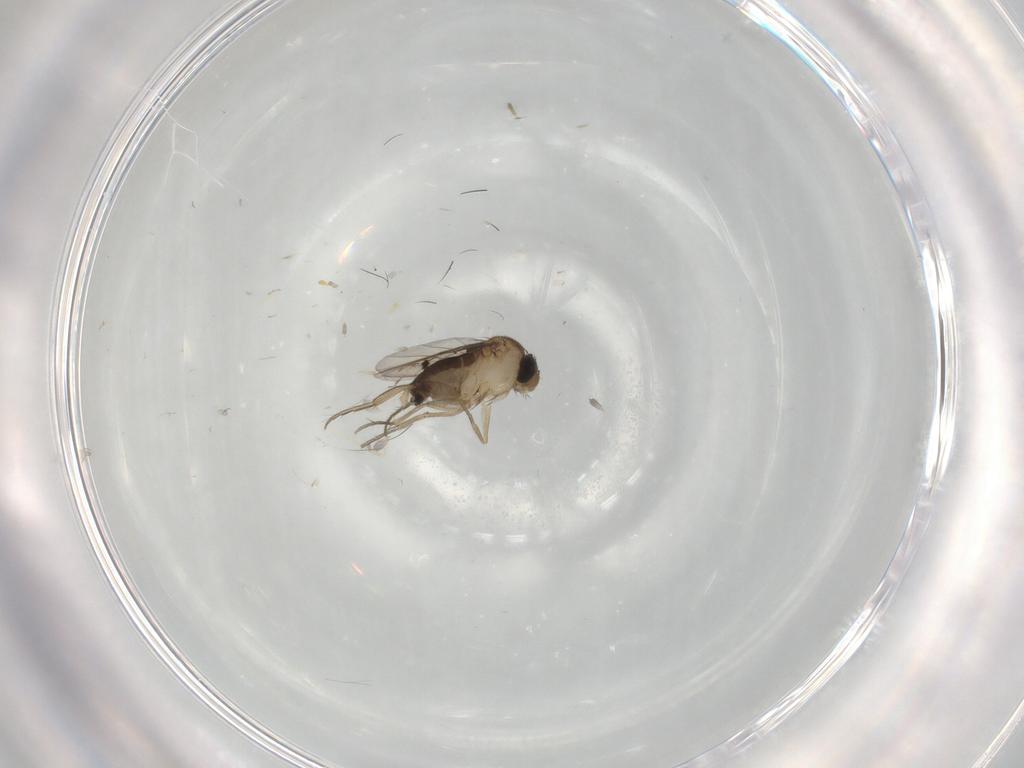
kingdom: Animalia
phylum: Arthropoda
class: Insecta
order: Diptera
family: Phoridae
